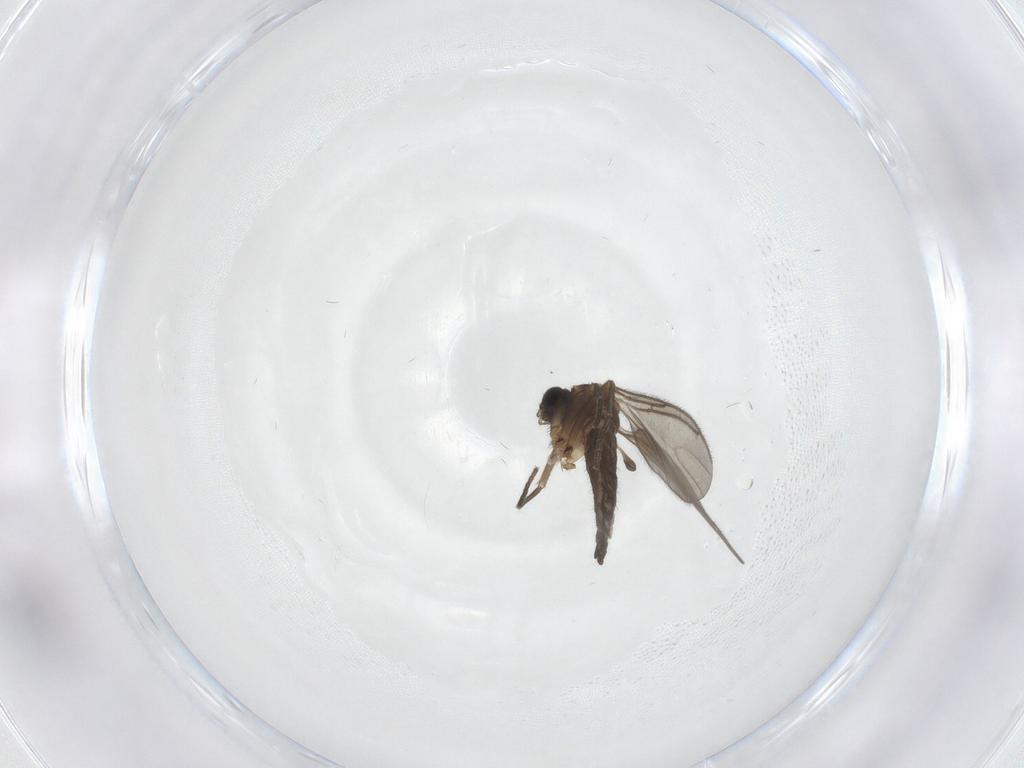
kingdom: Animalia
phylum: Arthropoda
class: Insecta
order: Diptera
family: Sciaridae
